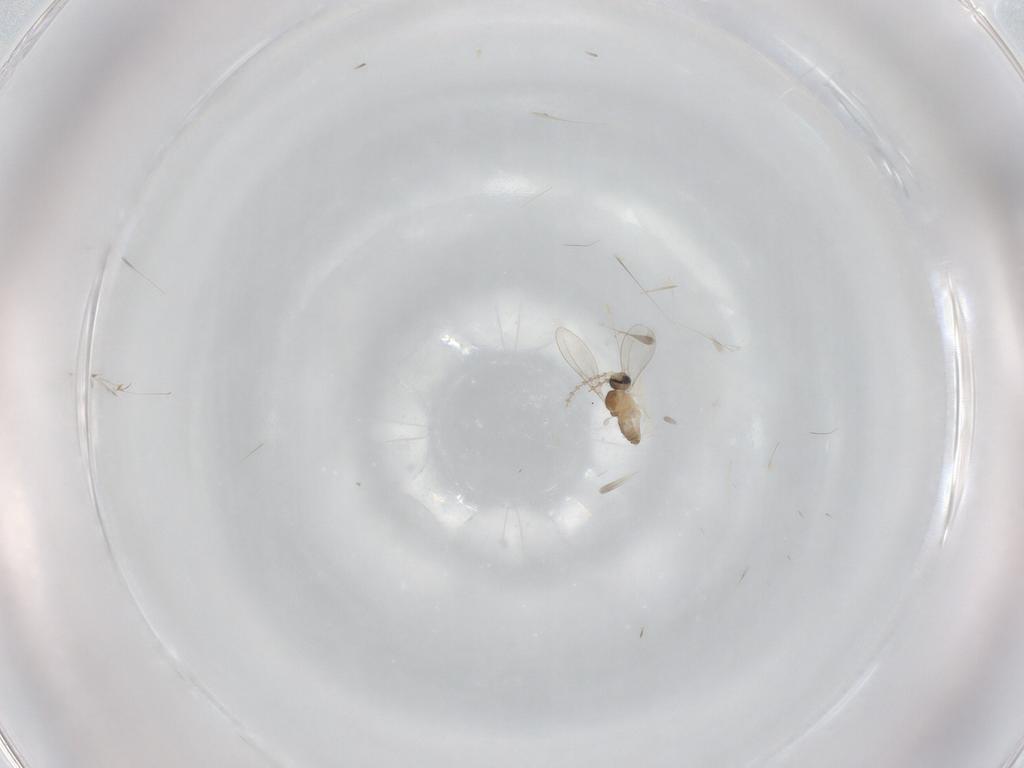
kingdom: Animalia
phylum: Arthropoda
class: Insecta
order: Diptera
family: Cecidomyiidae
